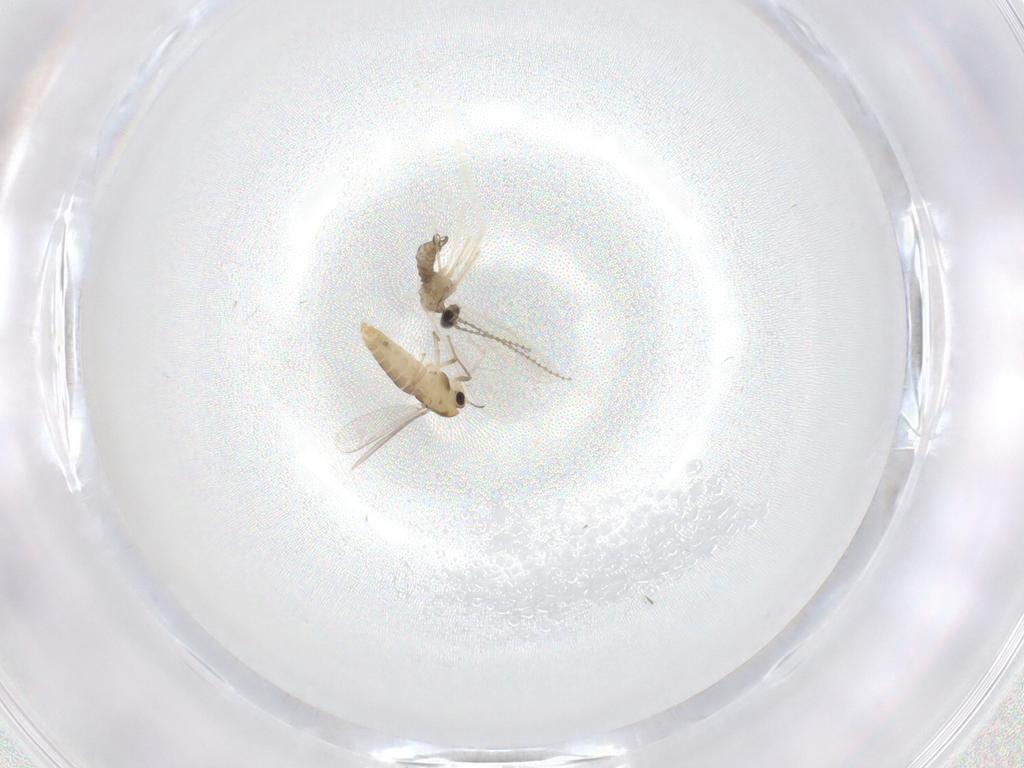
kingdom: Animalia
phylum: Arthropoda
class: Insecta
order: Diptera
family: Chironomidae
